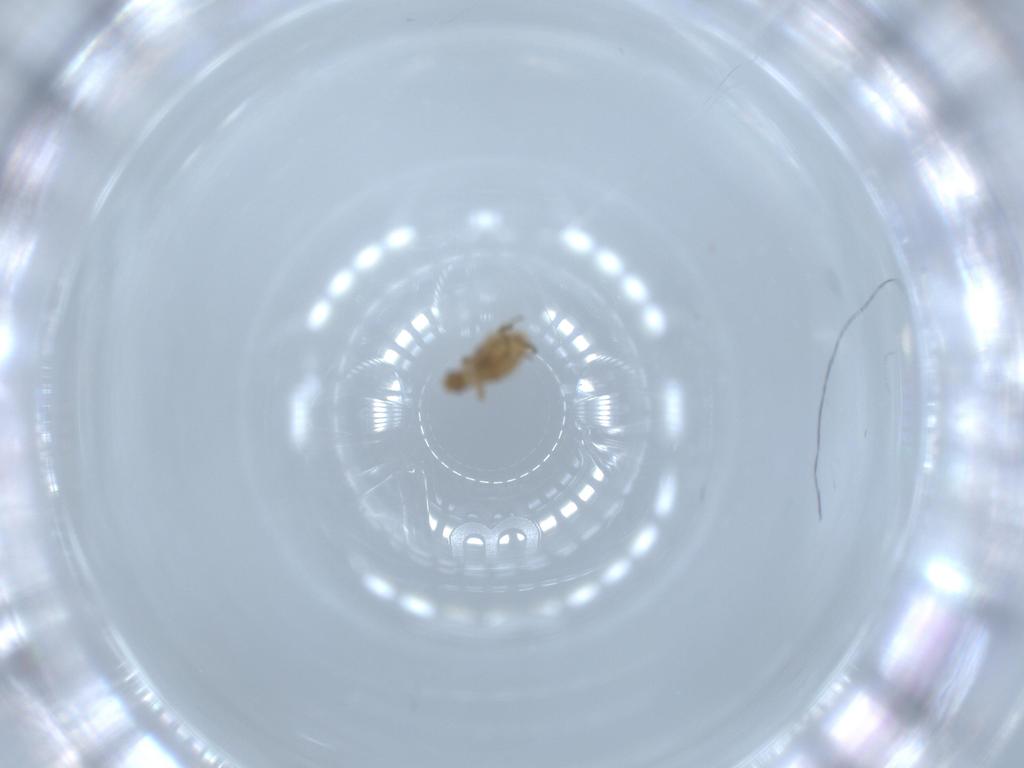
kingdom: Animalia
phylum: Arthropoda
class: Insecta
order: Diptera
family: Phoridae
